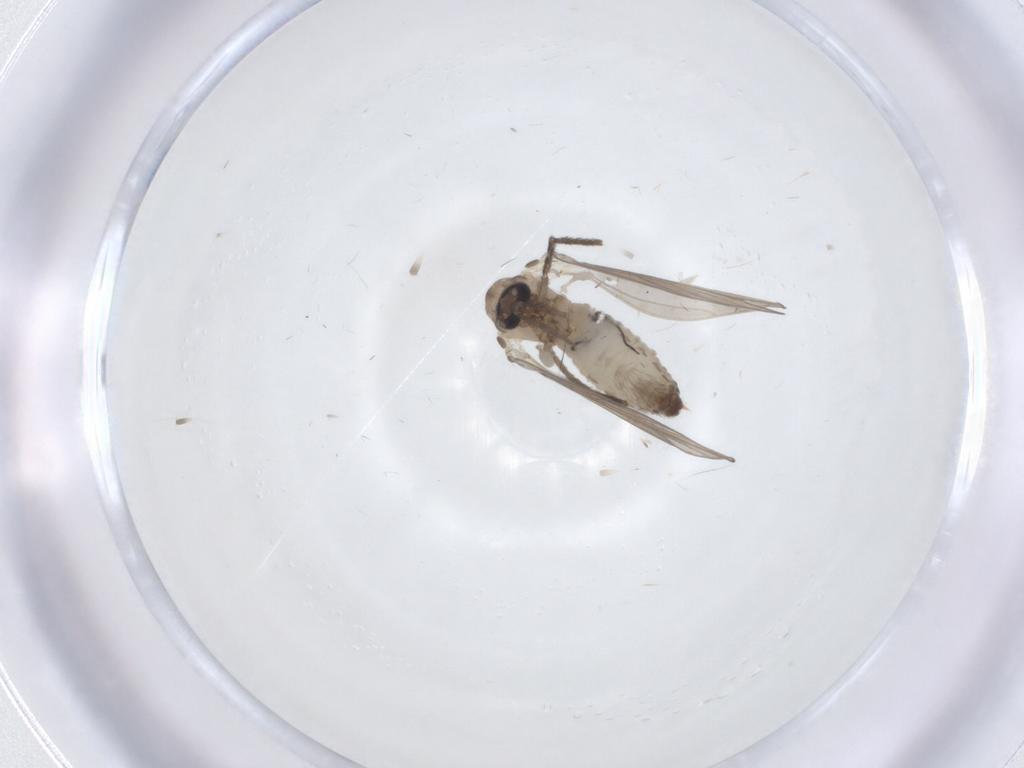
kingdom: Animalia
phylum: Arthropoda
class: Insecta
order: Diptera
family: Psychodidae
